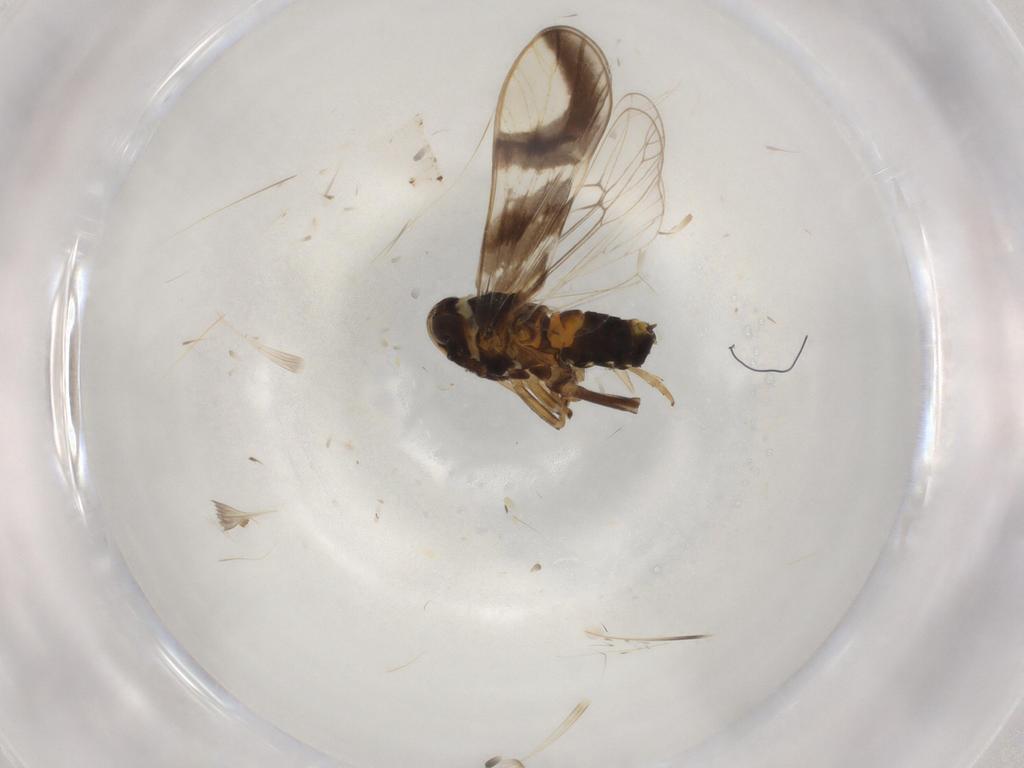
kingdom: Animalia
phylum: Arthropoda
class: Insecta
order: Hemiptera
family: Delphacidae
